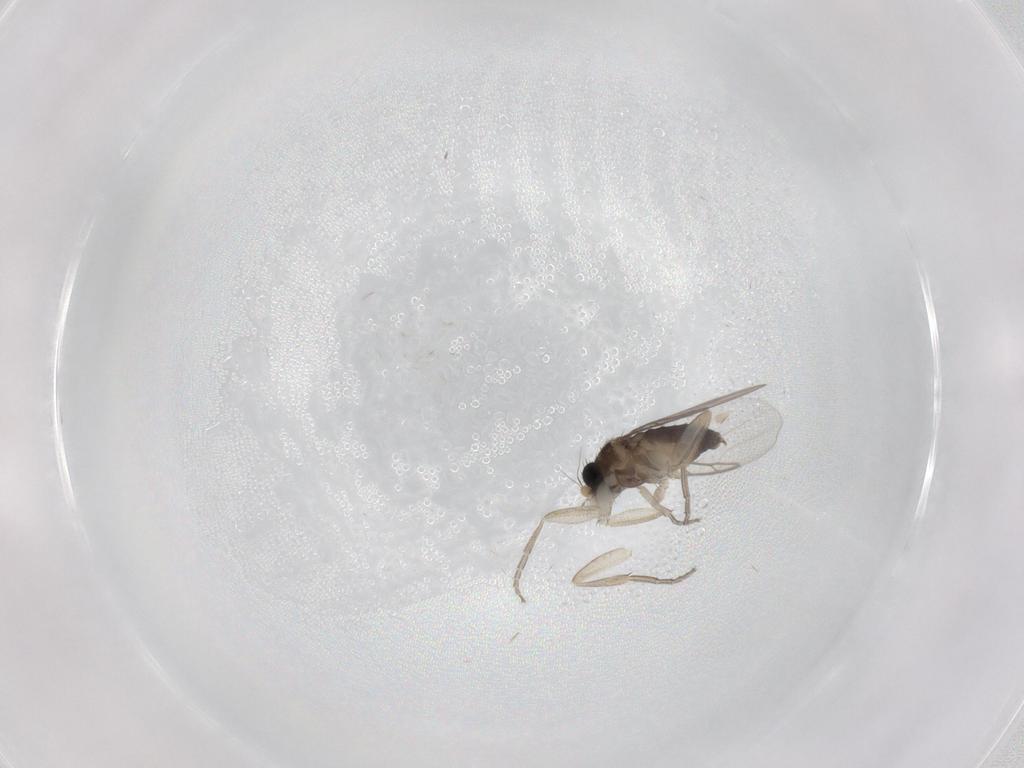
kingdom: Animalia
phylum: Arthropoda
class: Insecta
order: Diptera
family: Phoridae
